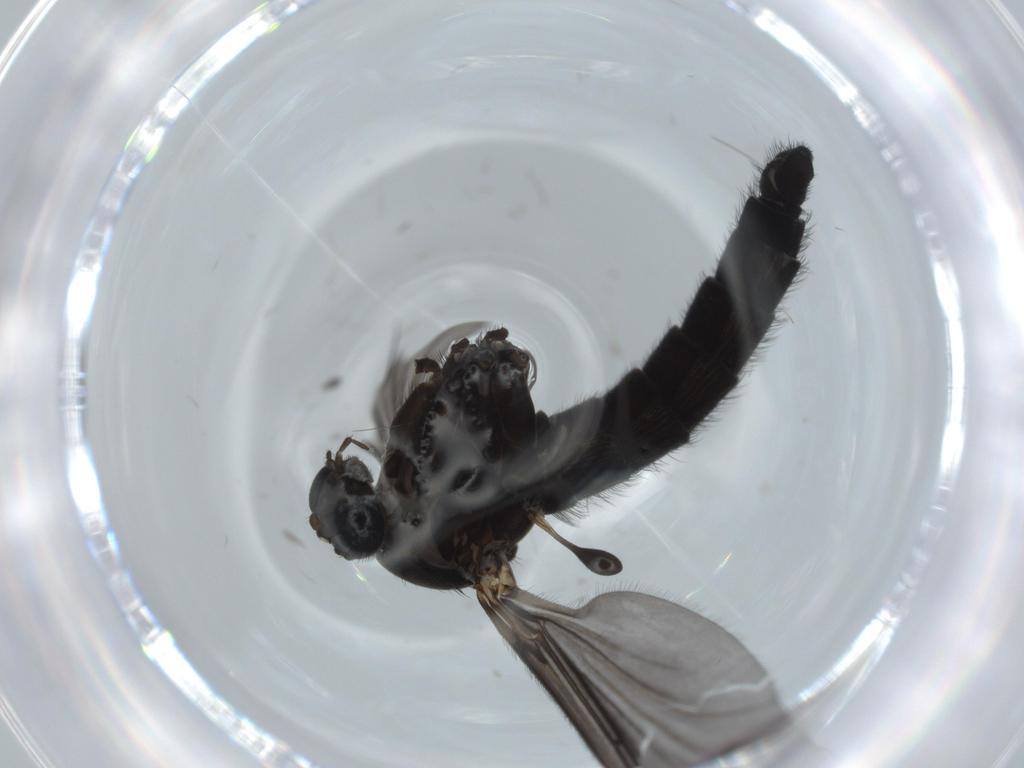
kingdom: Animalia
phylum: Arthropoda
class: Insecta
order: Diptera
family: Sciaridae
